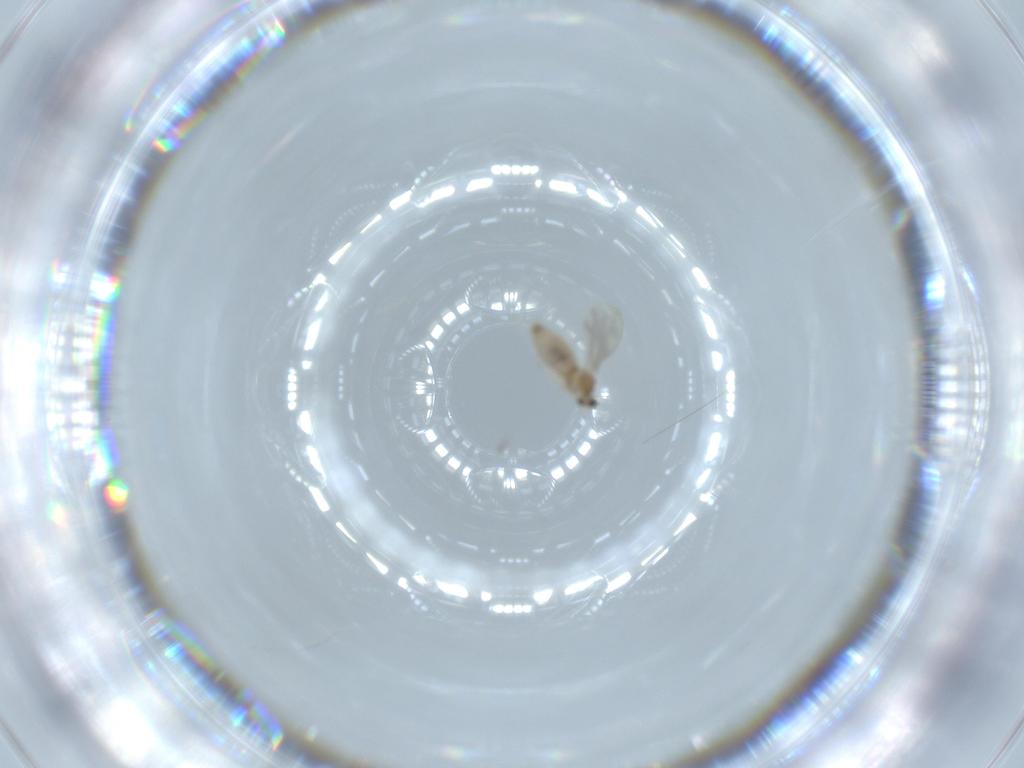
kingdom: Animalia
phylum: Arthropoda
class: Insecta
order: Diptera
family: Cecidomyiidae
